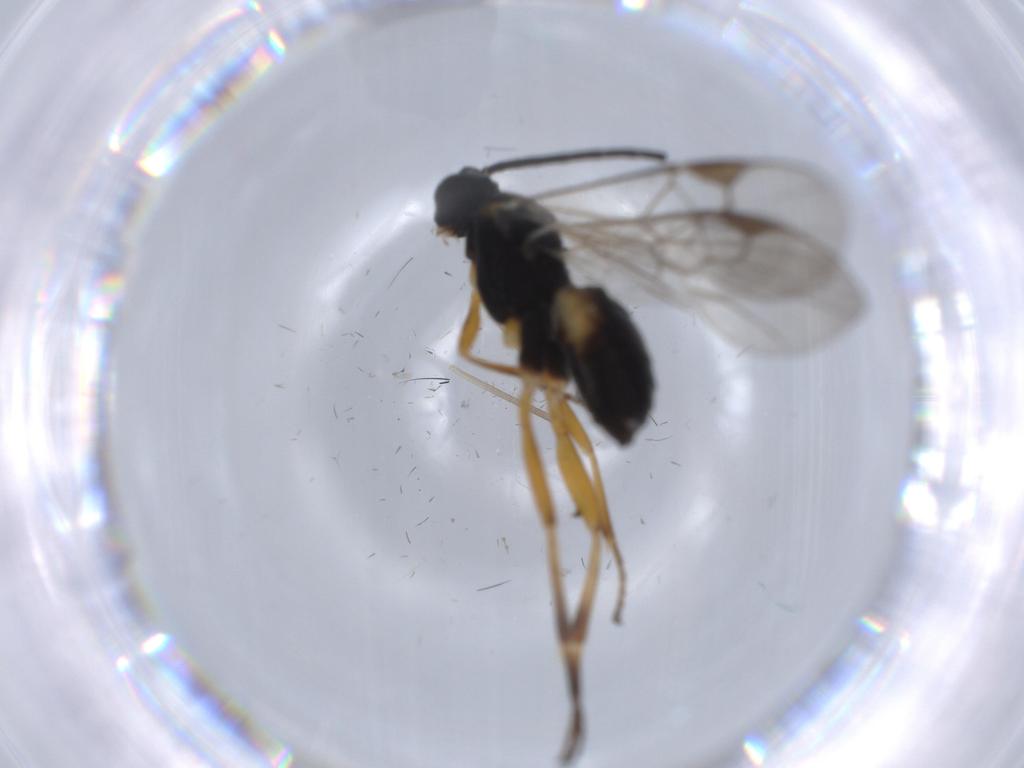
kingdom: Animalia
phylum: Arthropoda
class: Insecta
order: Hymenoptera
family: Braconidae
